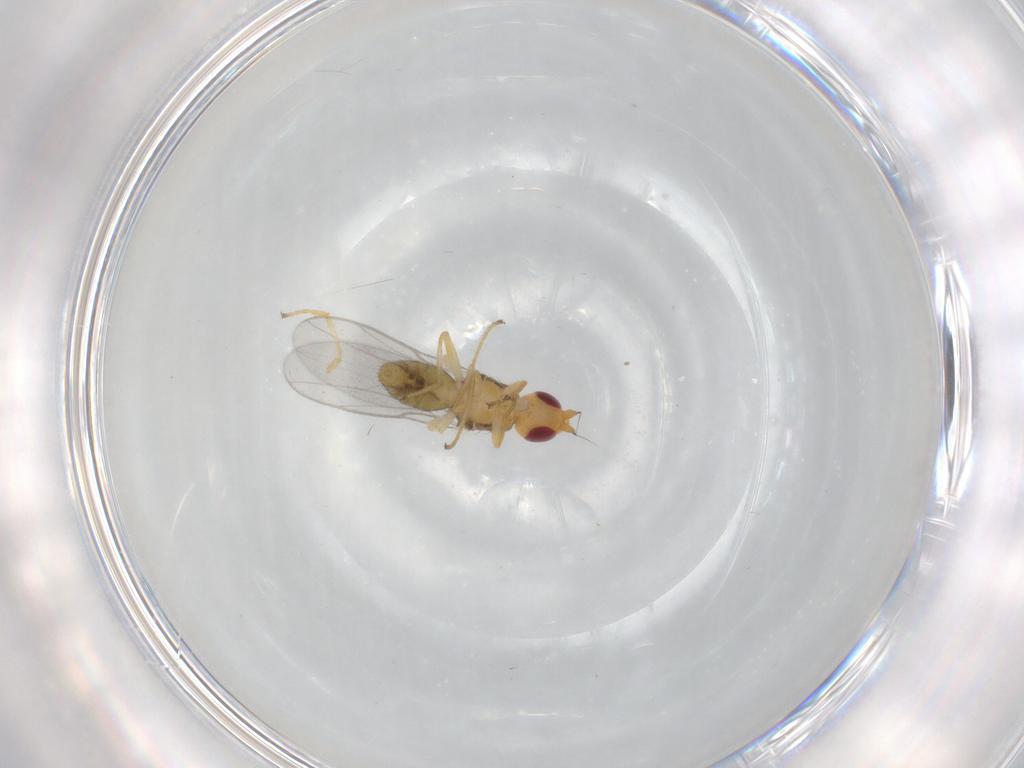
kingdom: Animalia
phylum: Arthropoda
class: Insecta
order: Diptera
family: Chloropidae
